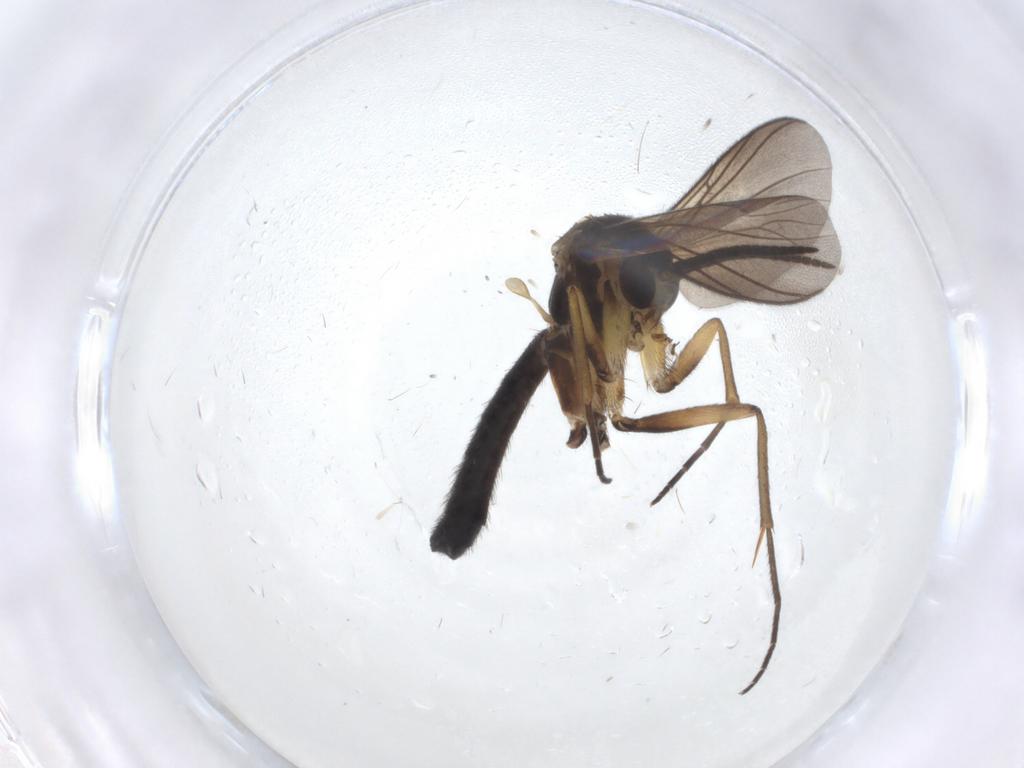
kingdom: Animalia
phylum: Arthropoda
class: Insecta
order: Diptera
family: Mycetophilidae
